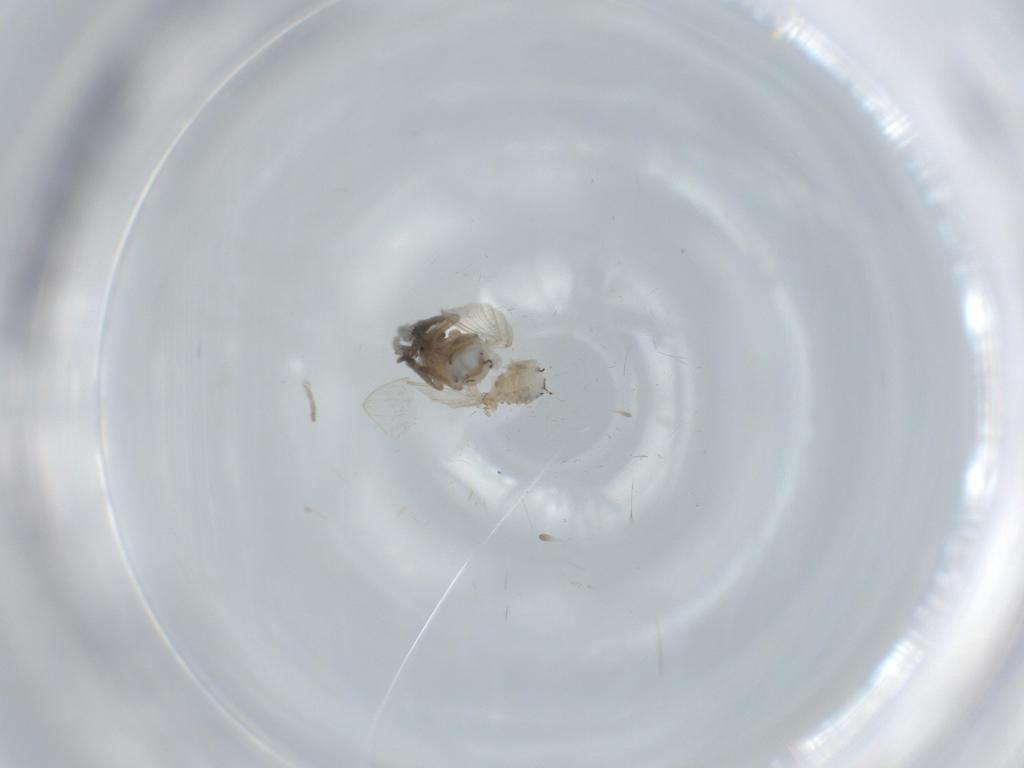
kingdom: Animalia
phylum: Arthropoda
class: Insecta
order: Diptera
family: Psychodidae
